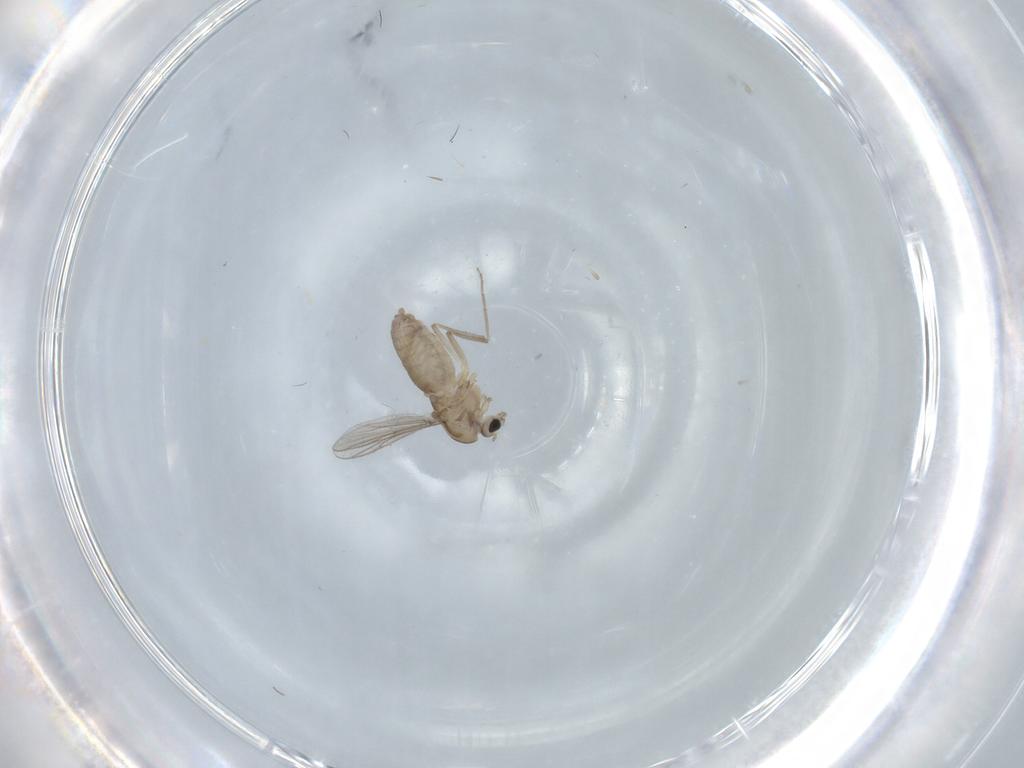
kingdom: Animalia
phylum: Arthropoda
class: Insecta
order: Diptera
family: Chironomidae
